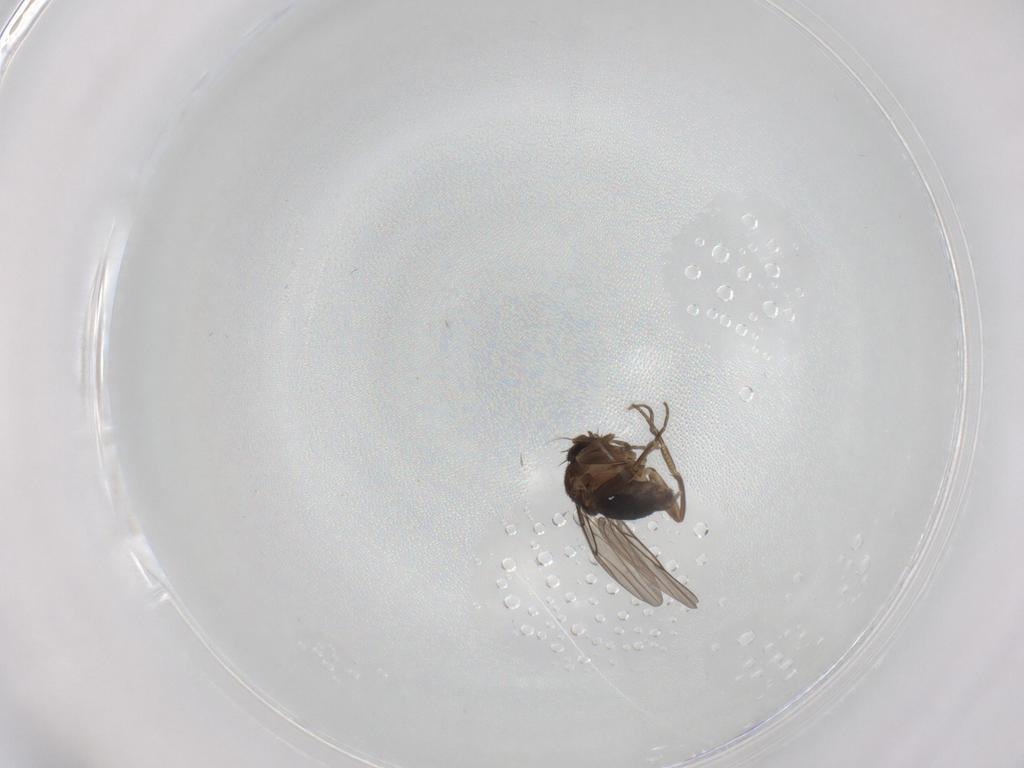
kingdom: Animalia
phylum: Arthropoda
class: Insecta
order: Diptera
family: Phoridae
